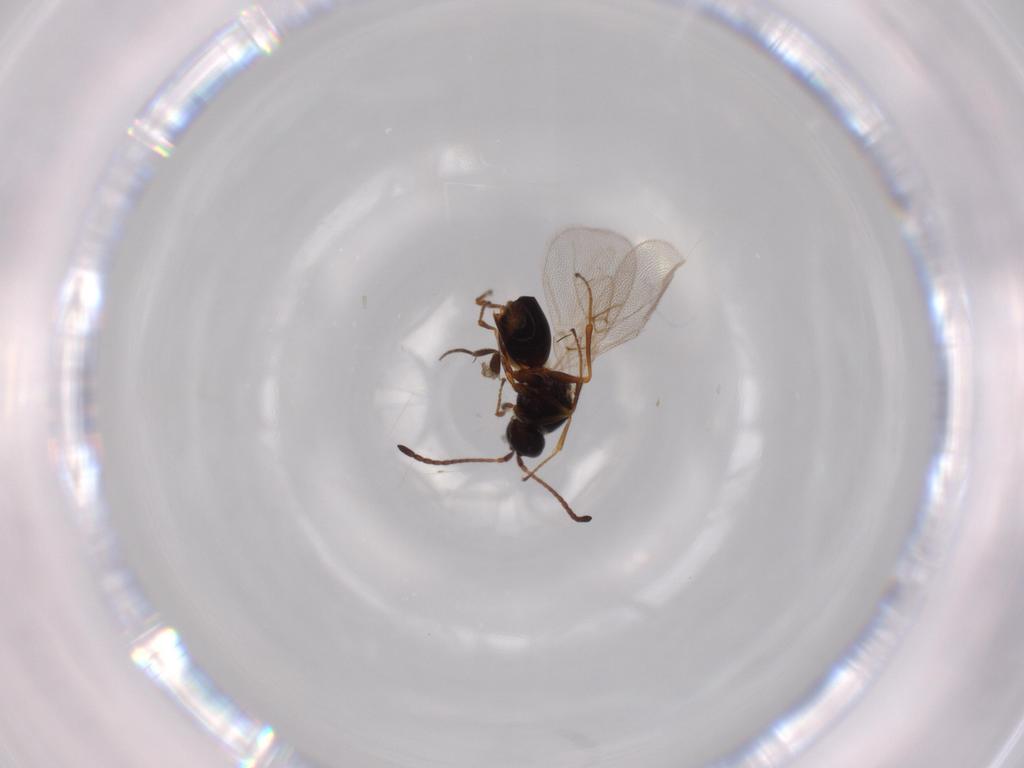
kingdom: Animalia
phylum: Arthropoda
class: Insecta
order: Hymenoptera
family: Figitidae
